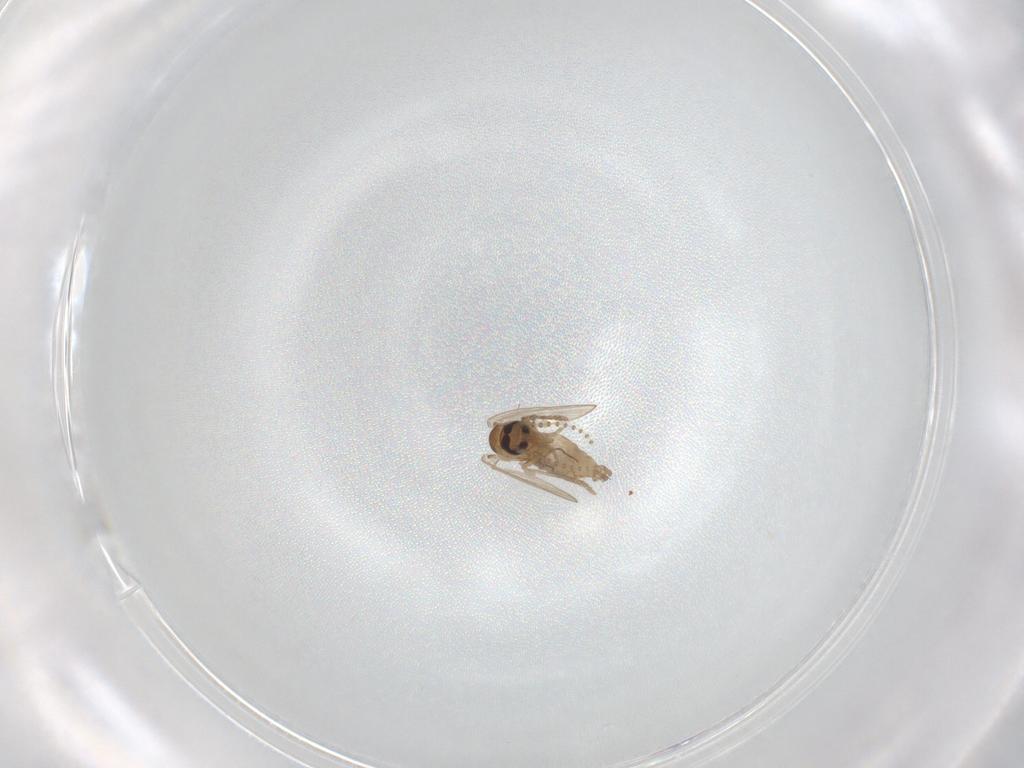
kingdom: Animalia
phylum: Arthropoda
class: Insecta
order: Diptera
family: Psychodidae
